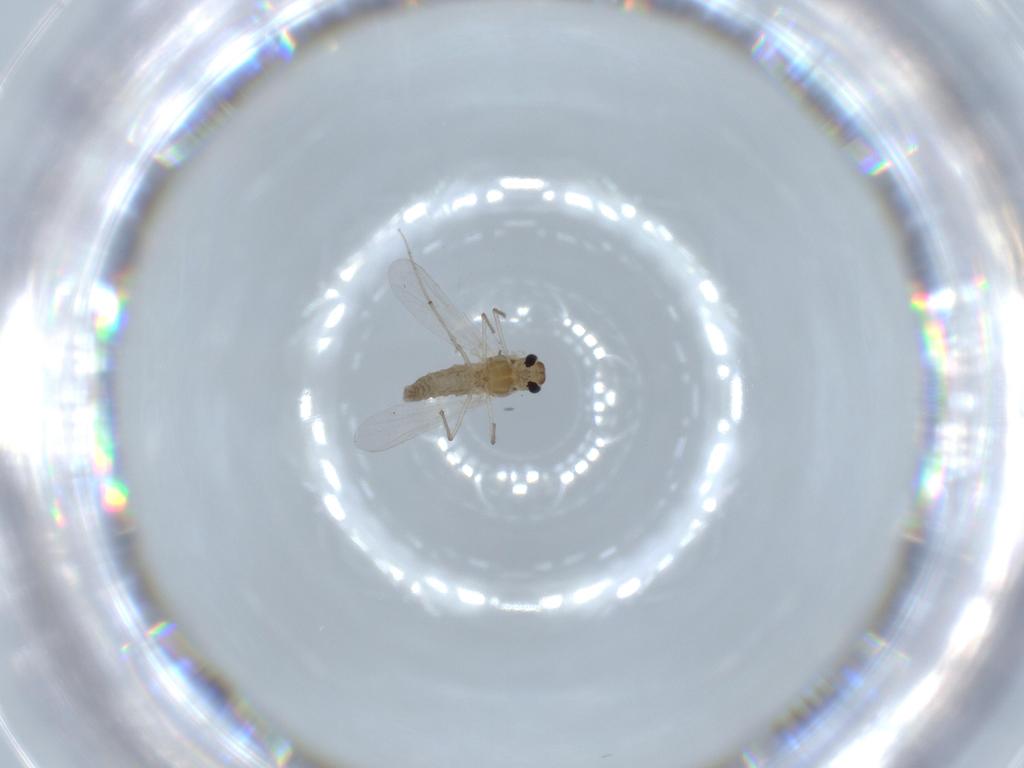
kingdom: Animalia
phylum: Arthropoda
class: Insecta
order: Diptera
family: Chironomidae
